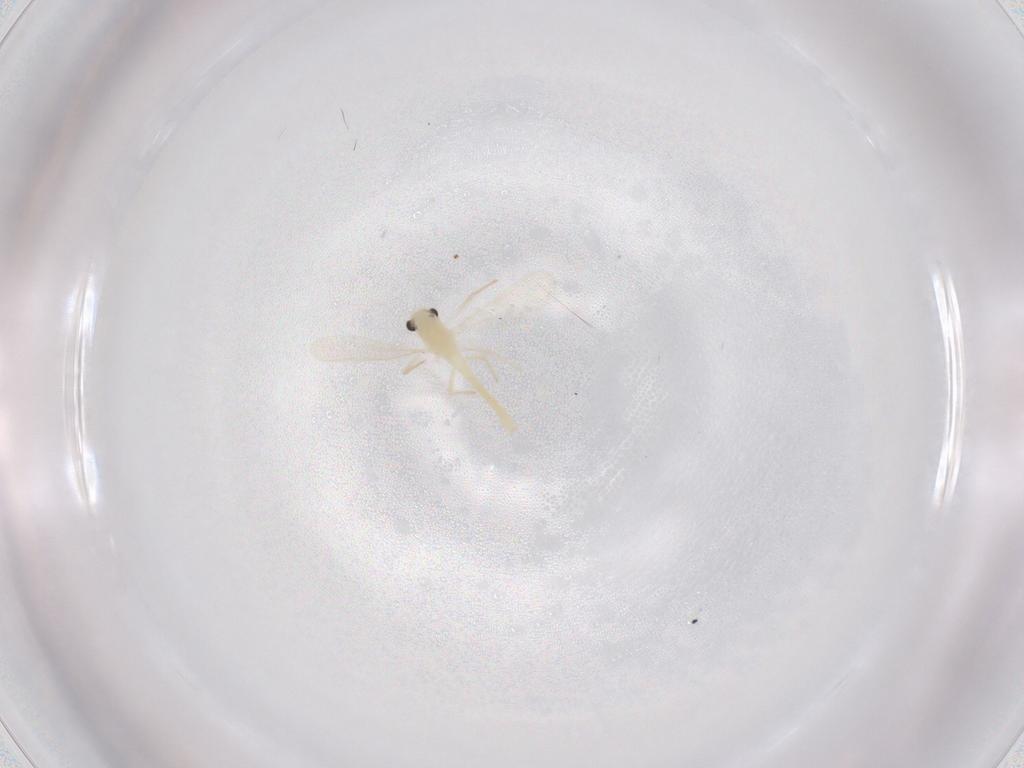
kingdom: Animalia
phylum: Arthropoda
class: Insecta
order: Diptera
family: Chironomidae
